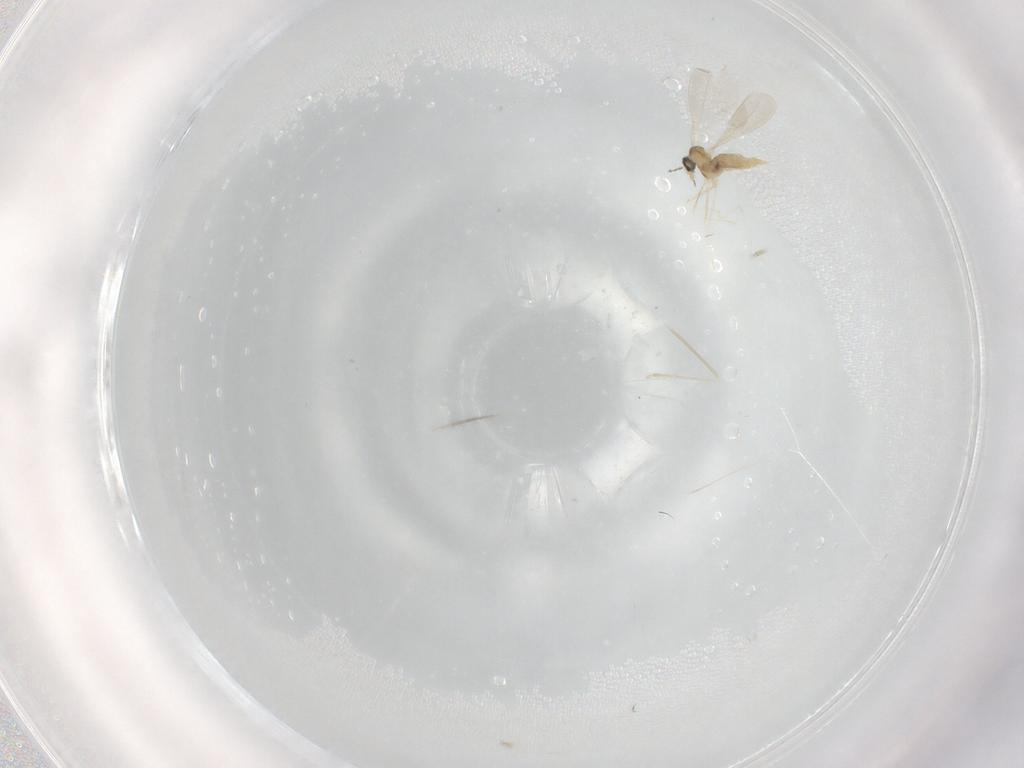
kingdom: Animalia
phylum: Arthropoda
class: Insecta
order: Diptera
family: Cecidomyiidae
